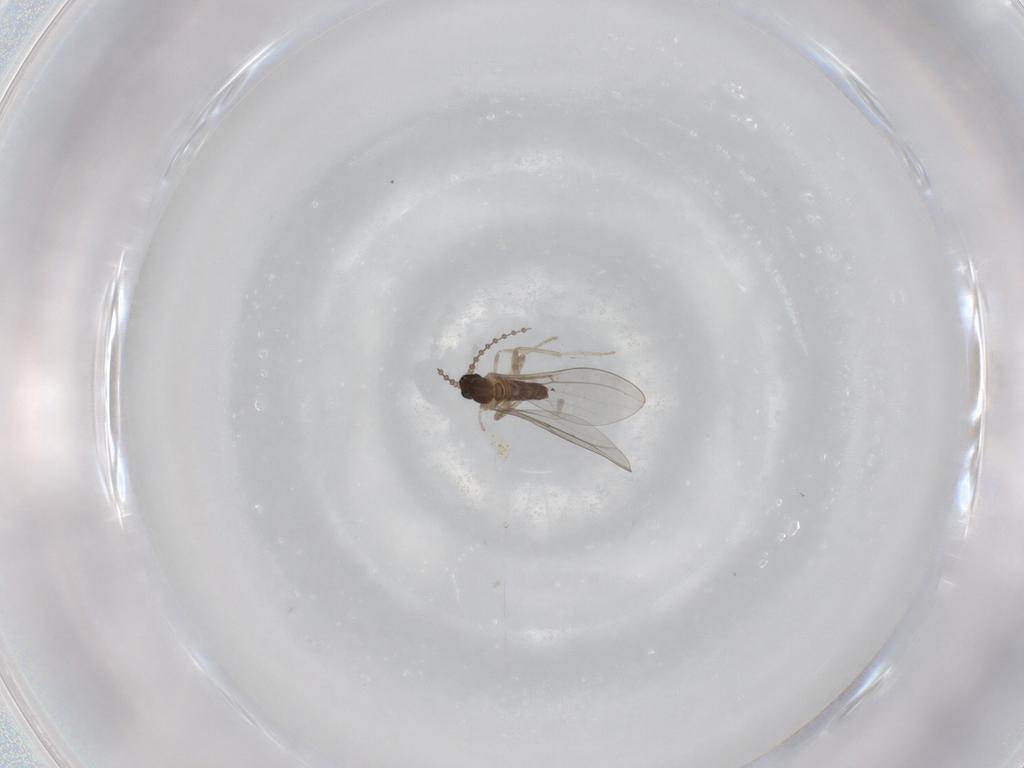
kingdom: Animalia
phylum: Arthropoda
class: Insecta
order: Diptera
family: Cecidomyiidae
